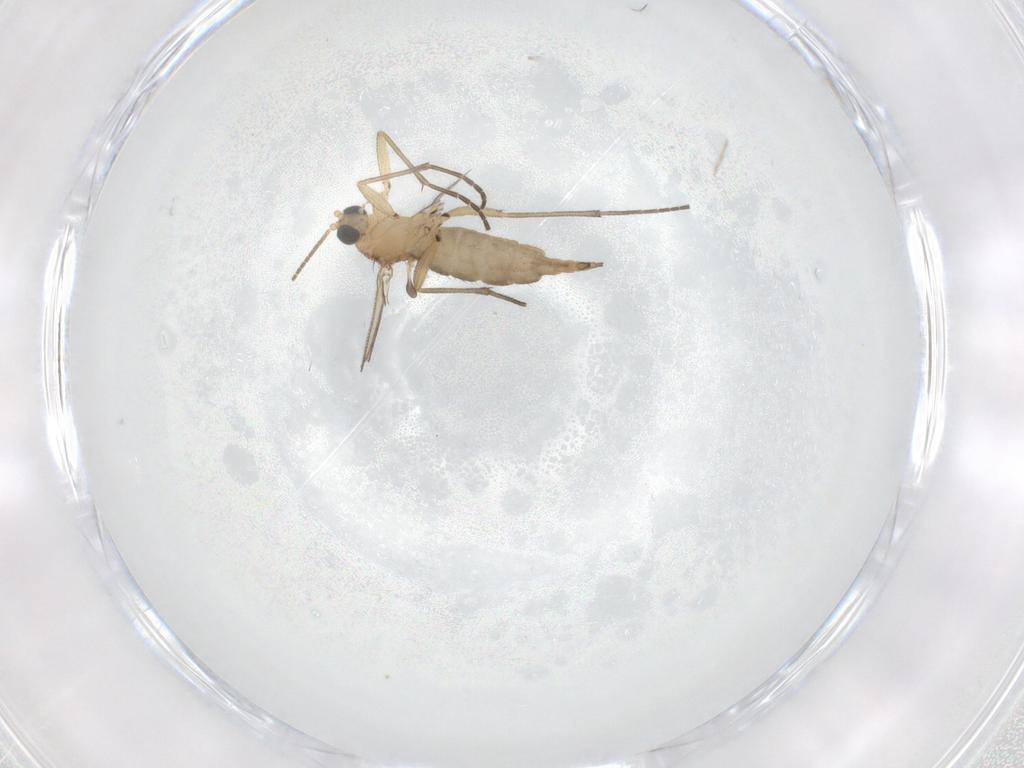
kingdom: Animalia
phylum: Arthropoda
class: Insecta
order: Diptera
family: Sciaridae
